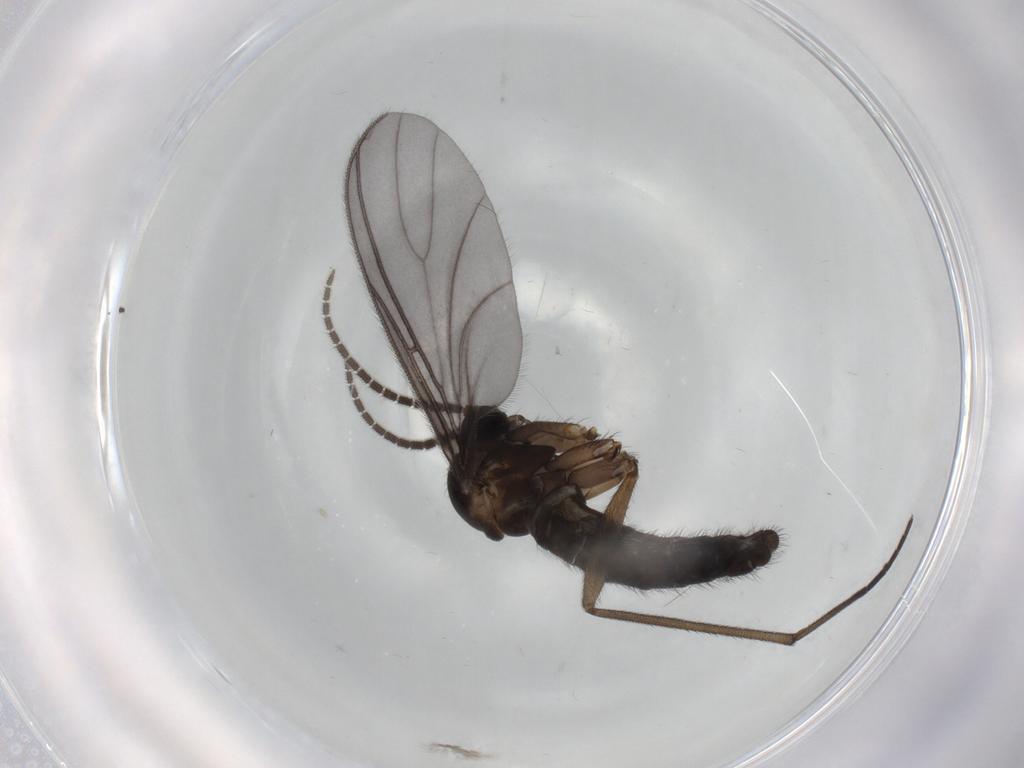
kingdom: Animalia
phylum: Arthropoda
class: Insecta
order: Diptera
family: Sciaridae
